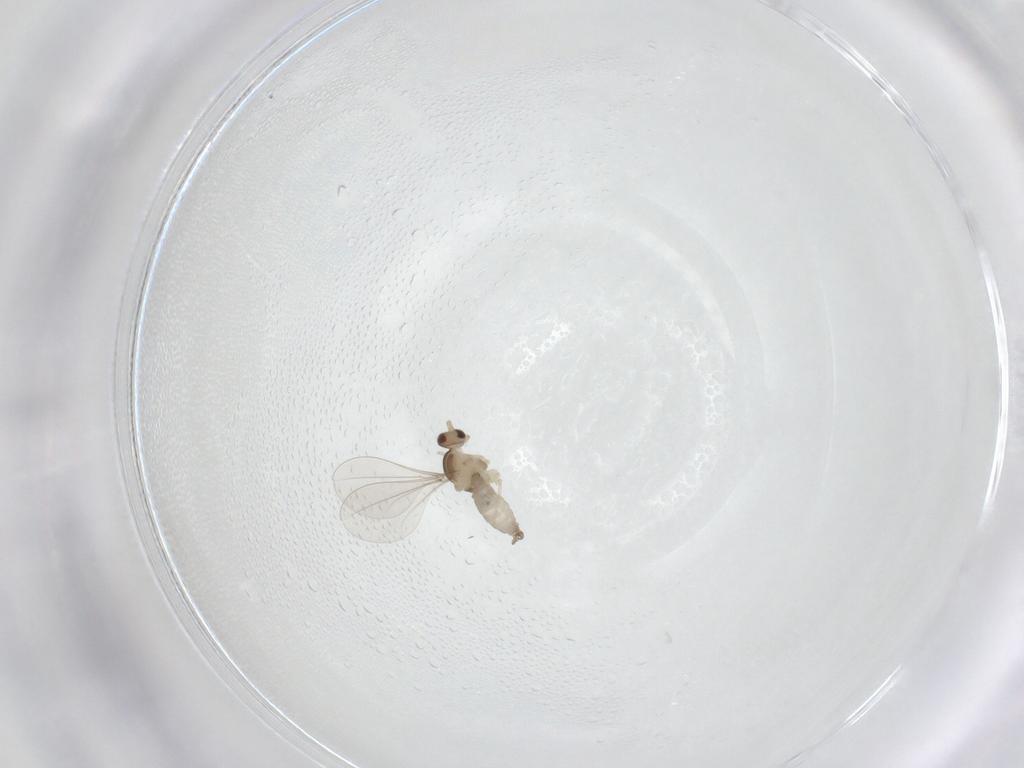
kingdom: Animalia
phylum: Arthropoda
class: Insecta
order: Diptera
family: Cecidomyiidae
